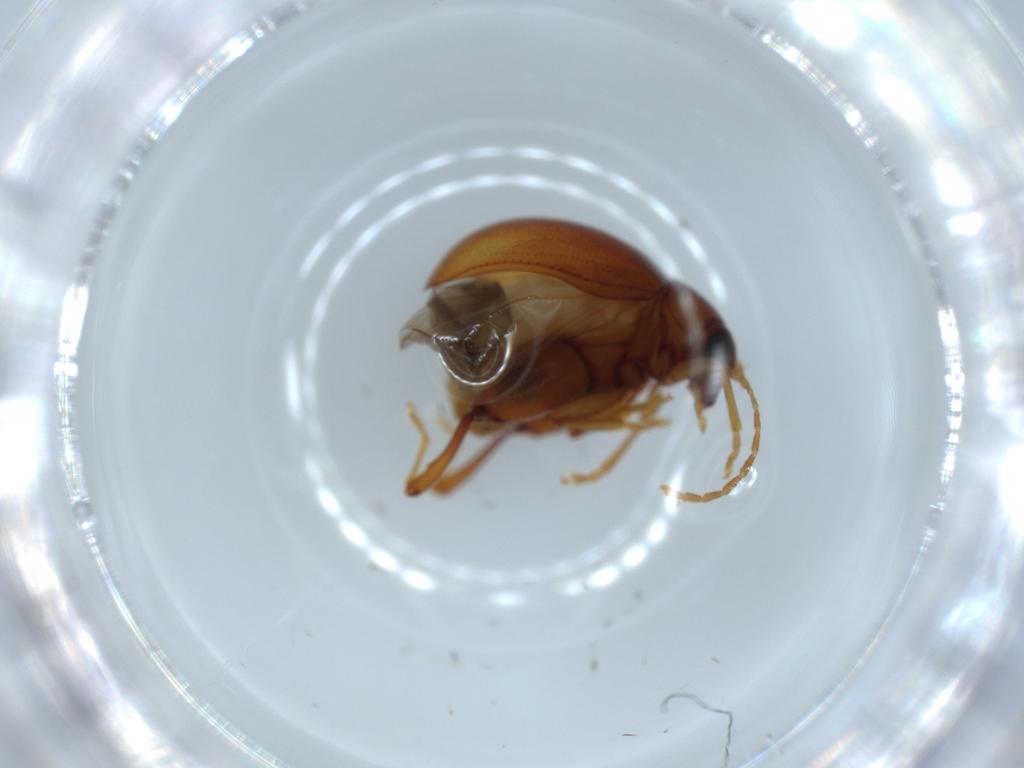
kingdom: Animalia
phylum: Arthropoda
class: Insecta
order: Coleoptera
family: Chrysomelidae
